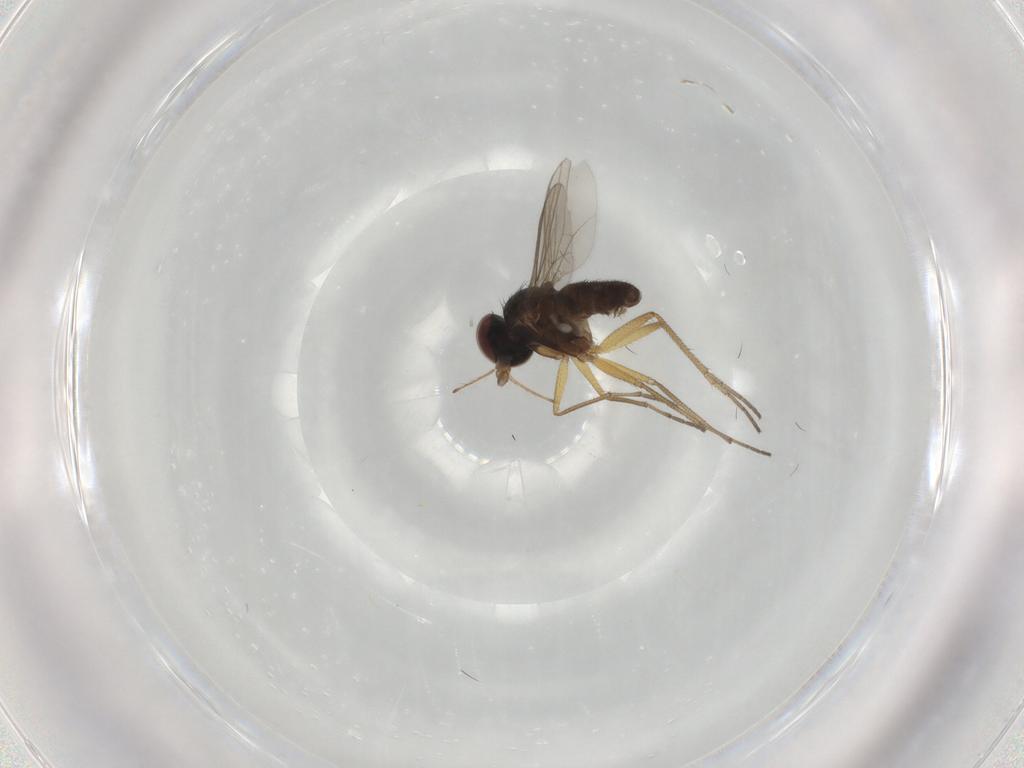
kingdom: Animalia
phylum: Arthropoda
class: Insecta
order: Diptera
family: Dolichopodidae
